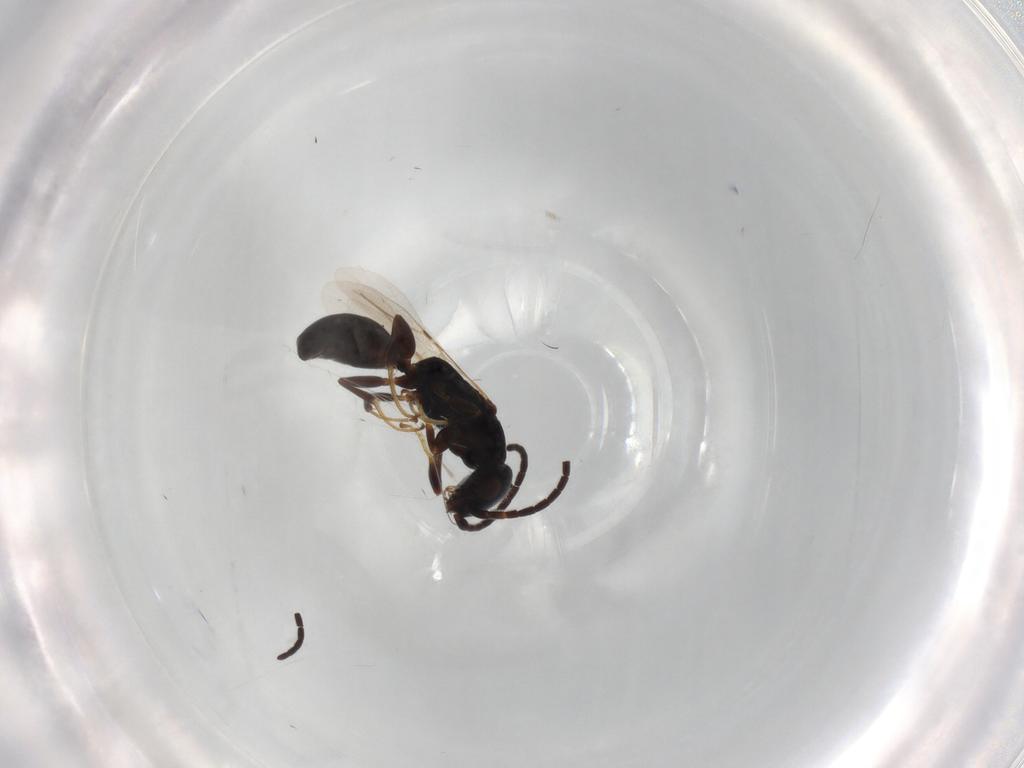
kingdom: Animalia
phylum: Arthropoda
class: Insecta
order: Hymenoptera
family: Bethylidae
